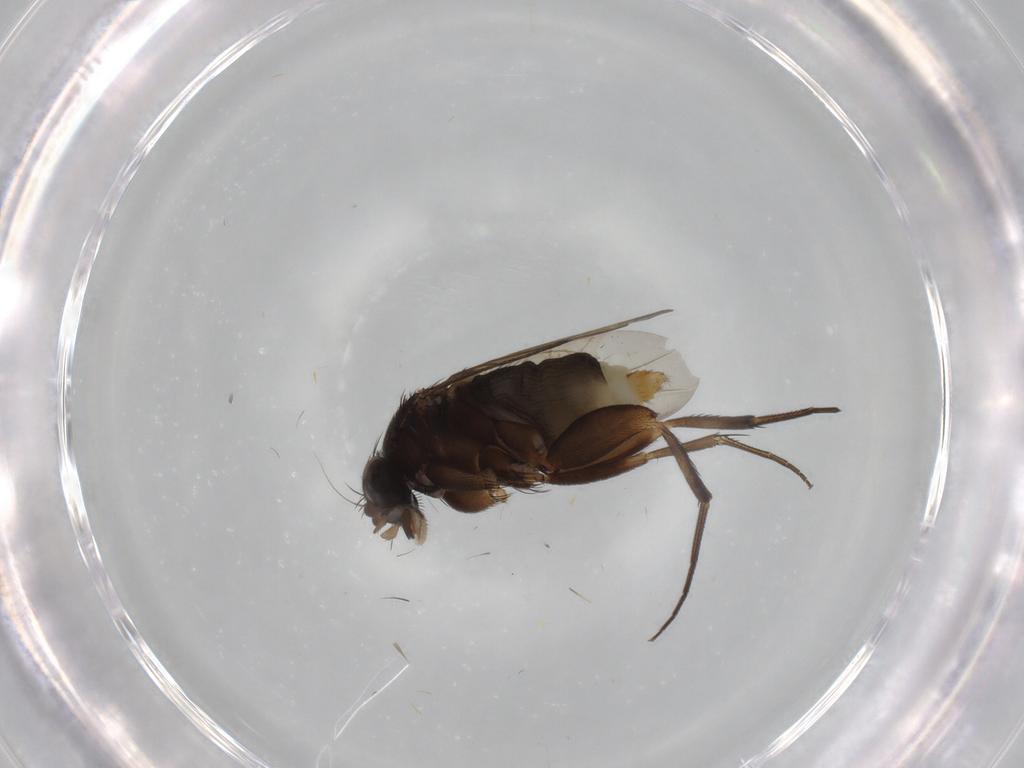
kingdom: Animalia
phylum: Arthropoda
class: Insecta
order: Diptera
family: Phoridae
